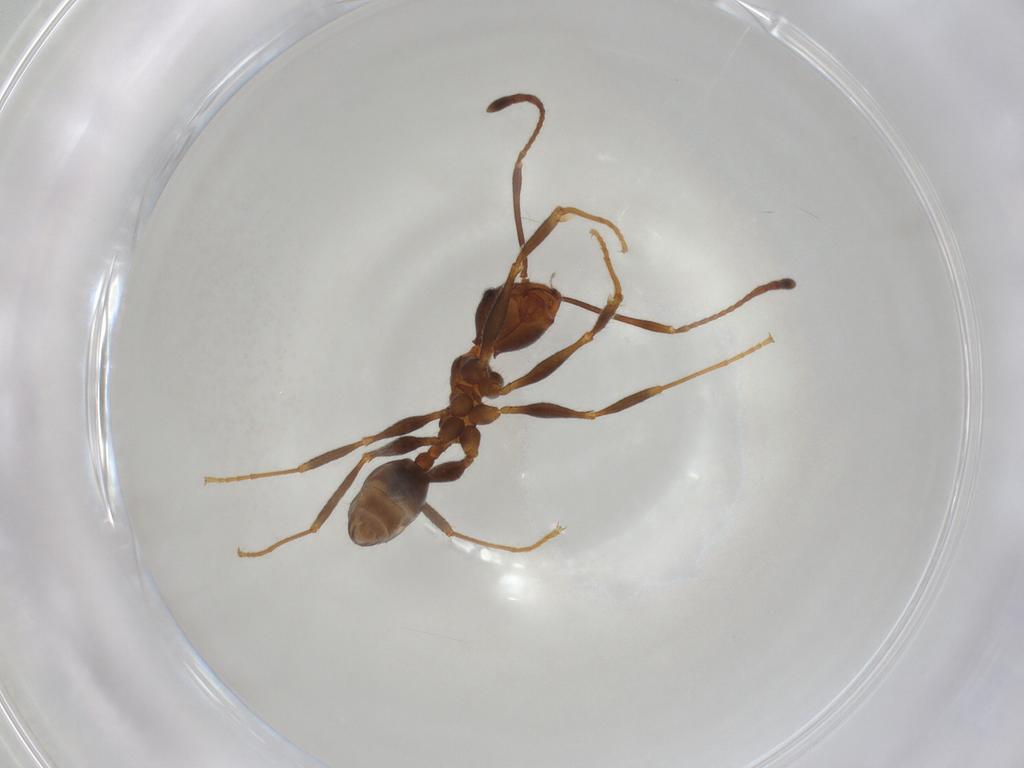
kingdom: Animalia
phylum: Arthropoda
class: Insecta
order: Hymenoptera
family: Formicidae
